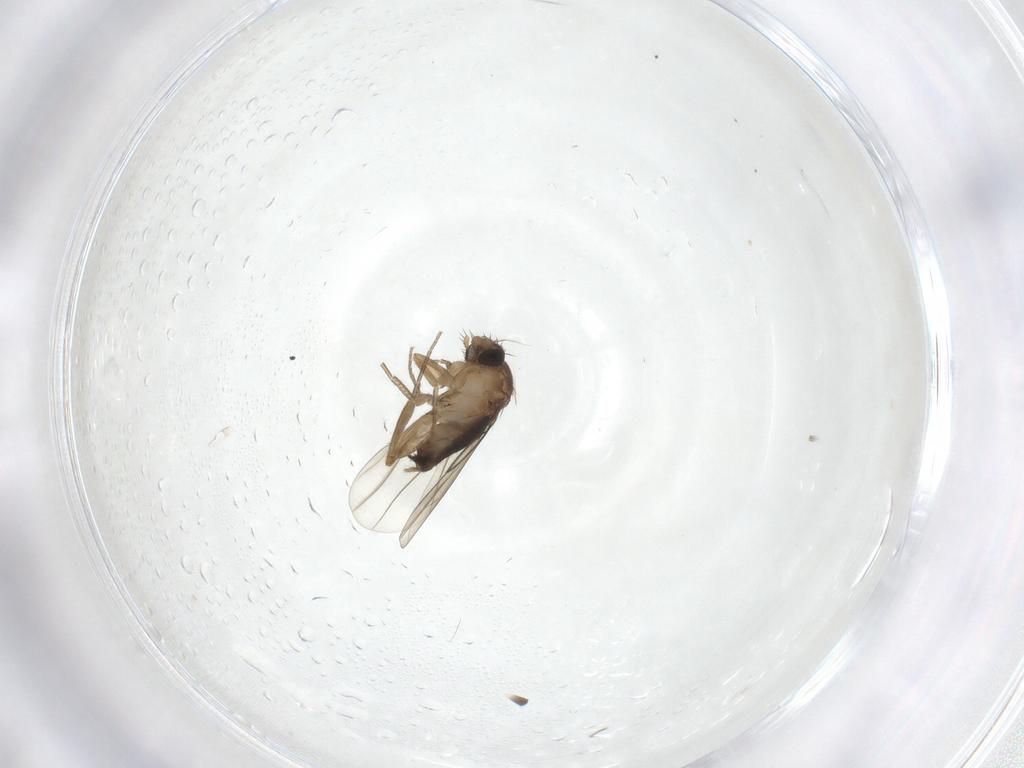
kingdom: Animalia
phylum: Arthropoda
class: Insecta
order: Diptera
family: Phoridae
